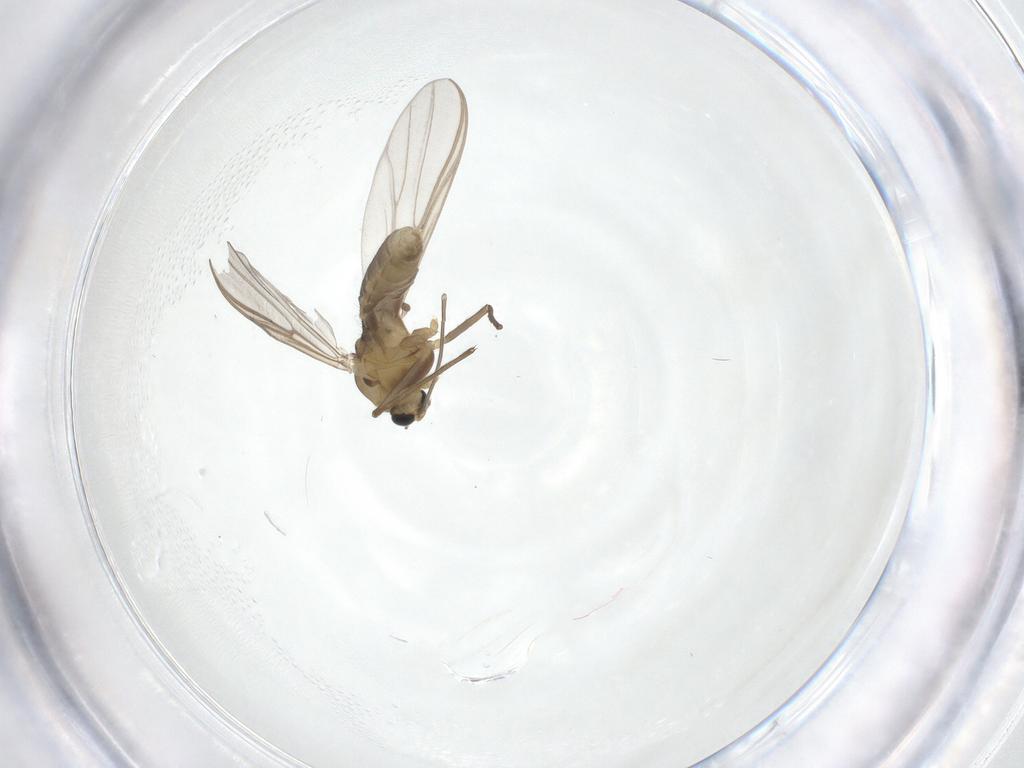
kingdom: Animalia
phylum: Arthropoda
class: Insecta
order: Diptera
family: Chironomidae
